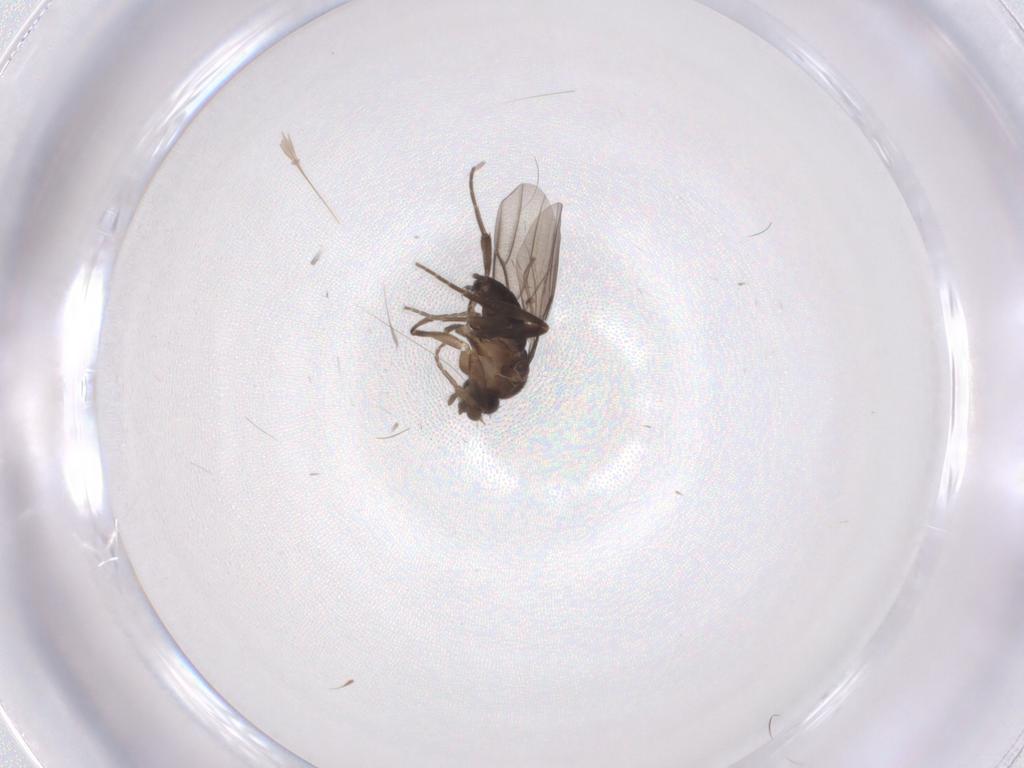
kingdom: Animalia
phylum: Arthropoda
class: Insecta
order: Diptera
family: Phoridae
